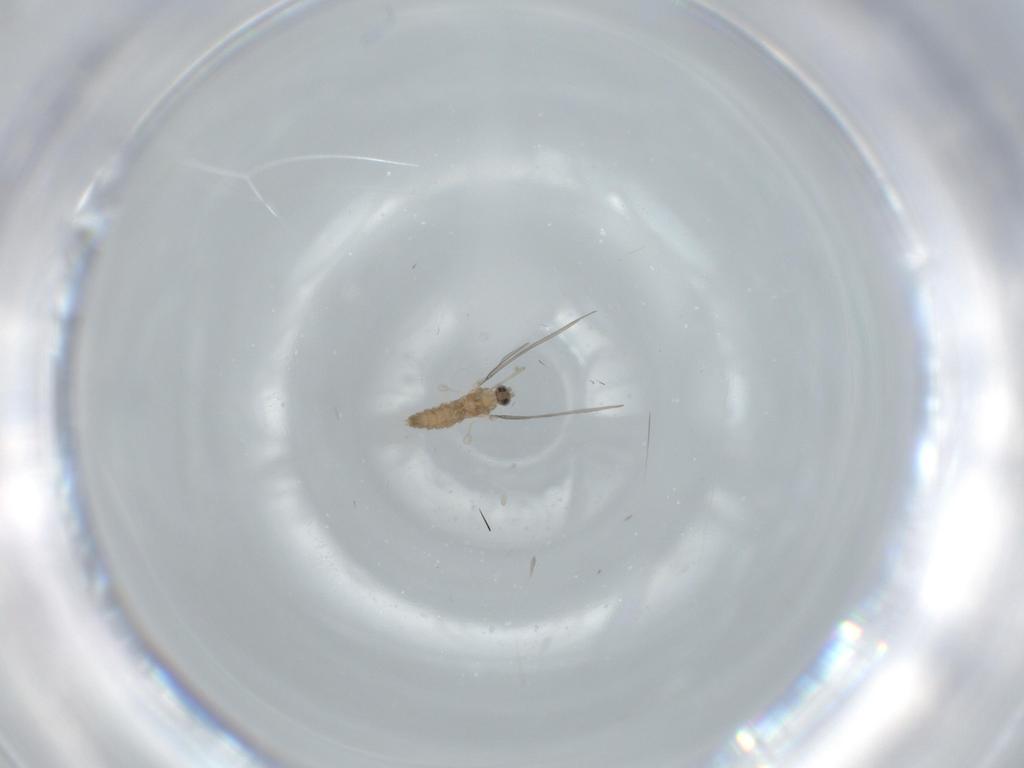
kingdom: Animalia
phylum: Arthropoda
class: Insecta
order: Diptera
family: Cecidomyiidae
